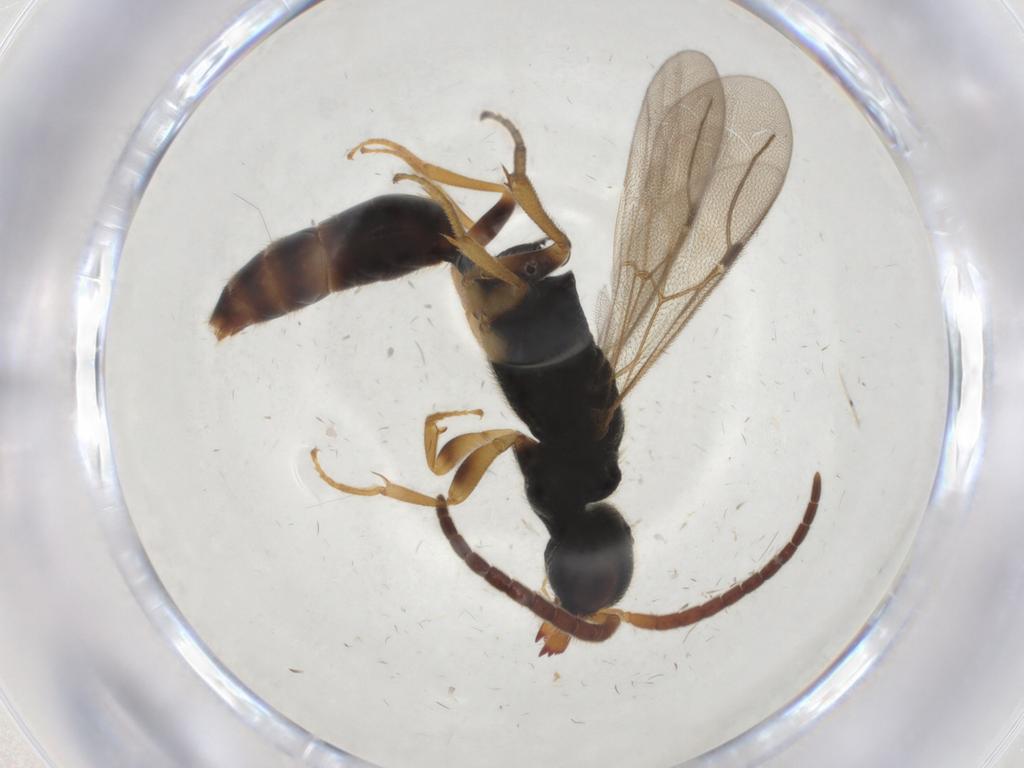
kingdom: Animalia
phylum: Arthropoda
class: Insecta
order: Hymenoptera
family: Bethylidae
